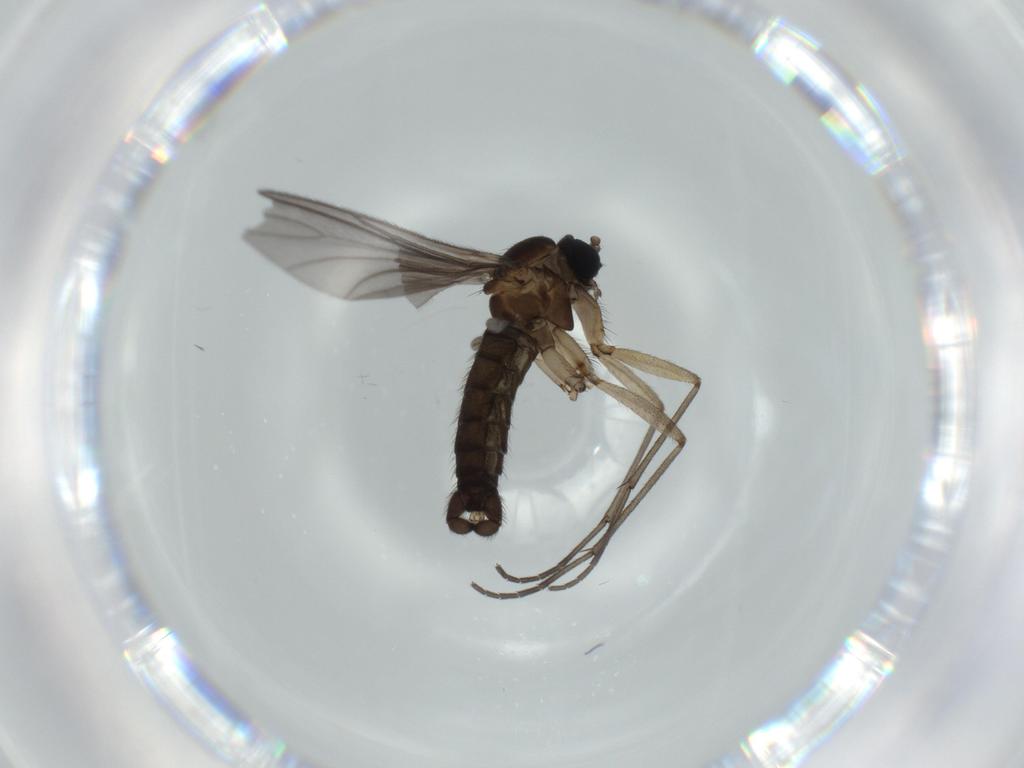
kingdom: Animalia
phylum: Arthropoda
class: Insecta
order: Diptera
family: Sciaridae
